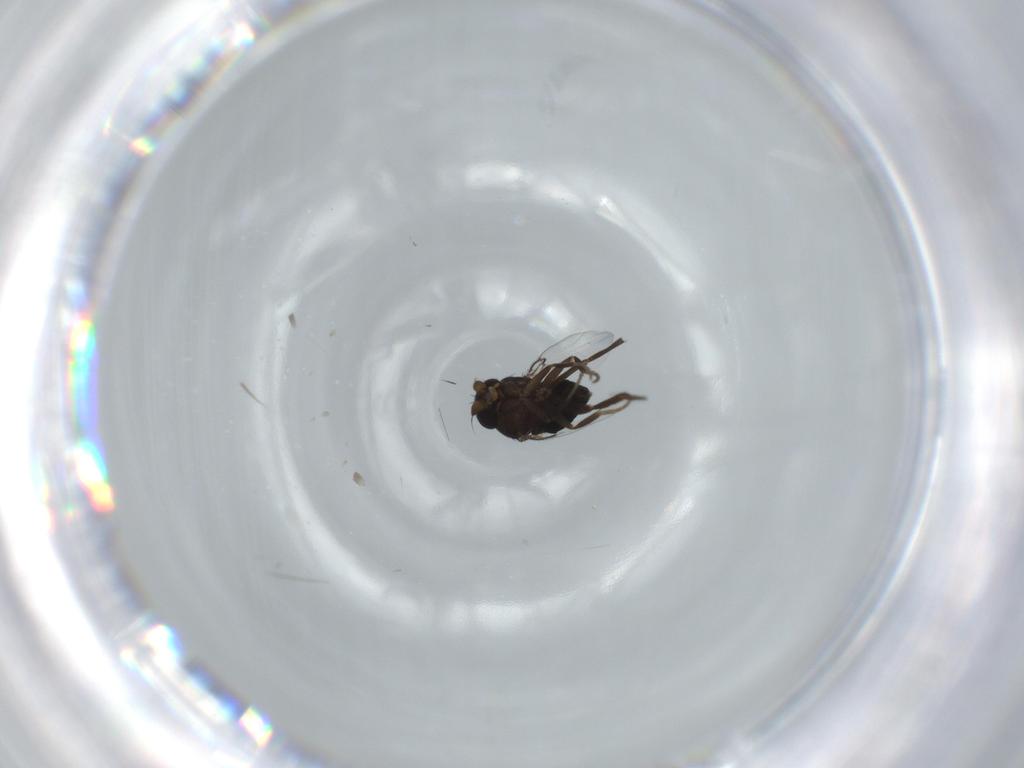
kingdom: Animalia
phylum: Arthropoda
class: Insecta
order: Diptera
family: Phoridae
